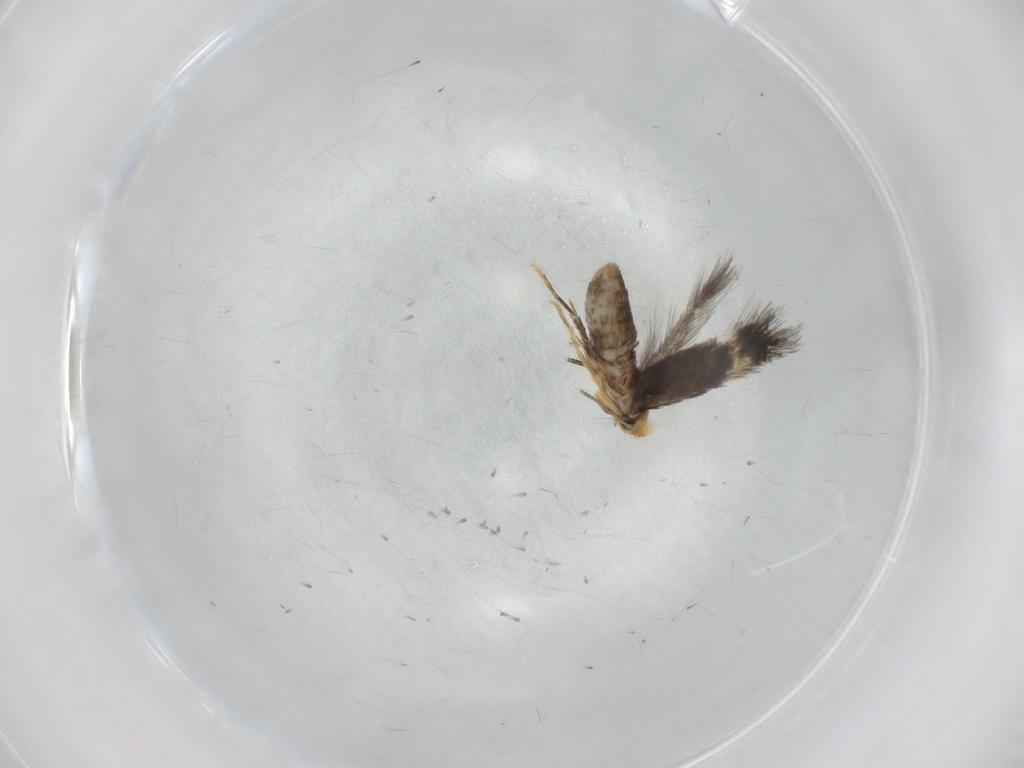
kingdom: Animalia
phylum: Arthropoda
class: Insecta
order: Lepidoptera
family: Nepticulidae
